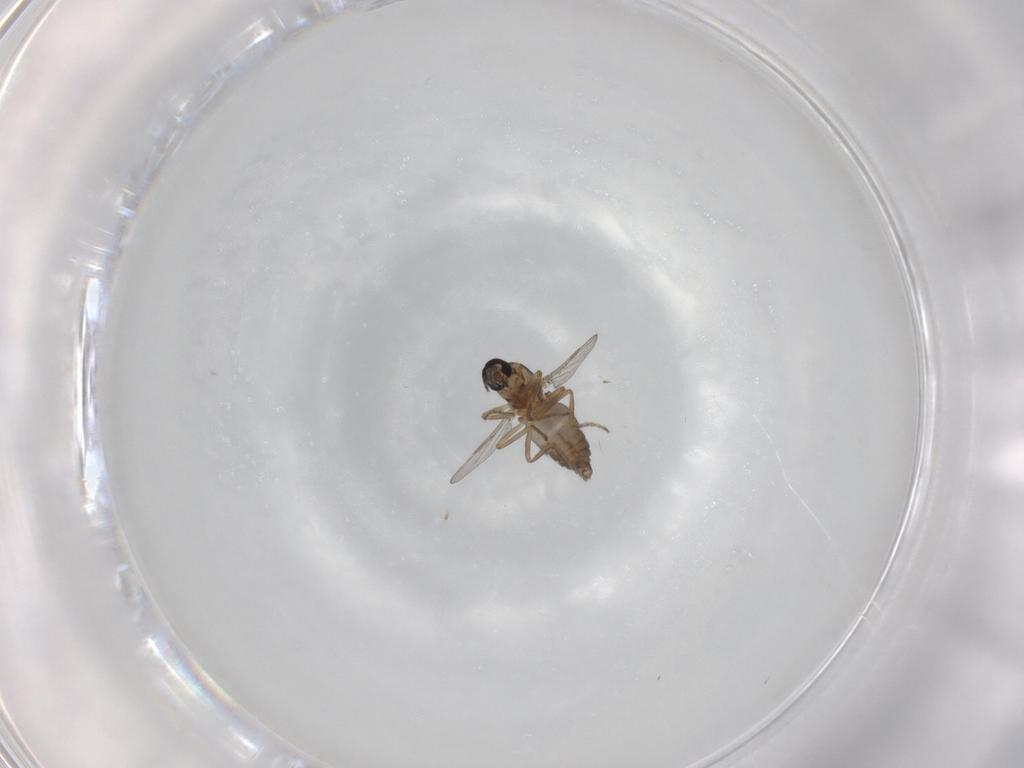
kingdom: Animalia
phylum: Arthropoda
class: Insecta
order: Diptera
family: Ceratopogonidae
